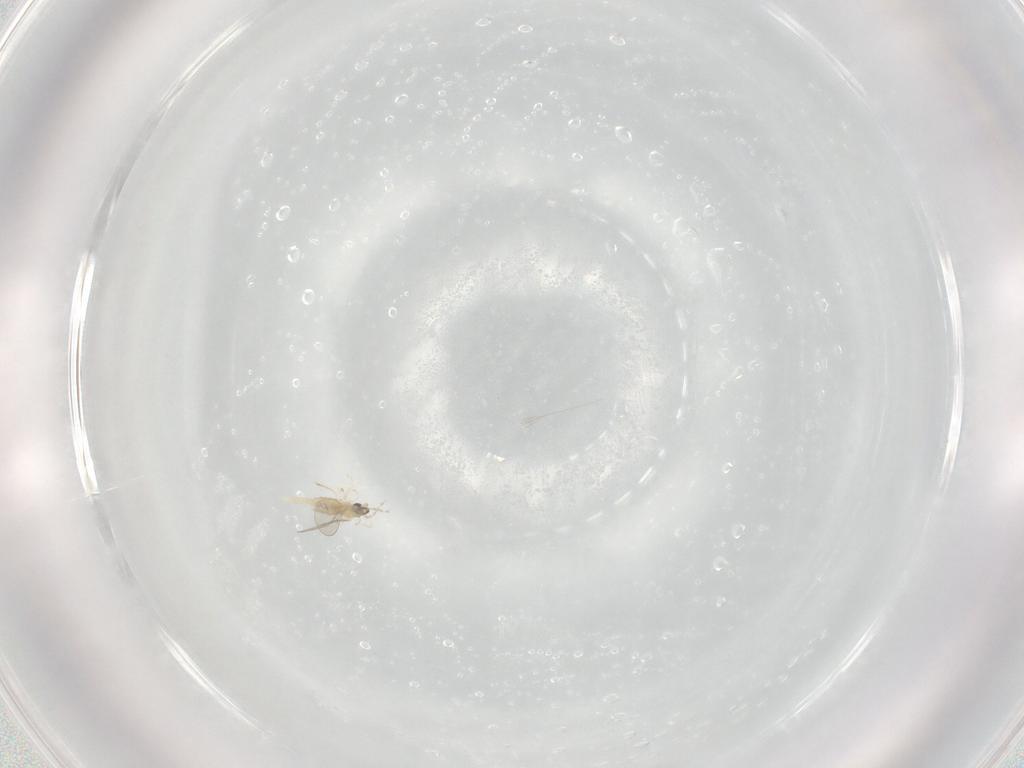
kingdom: Animalia
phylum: Arthropoda
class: Insecta
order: Diptera
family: Cecidomyiidae
